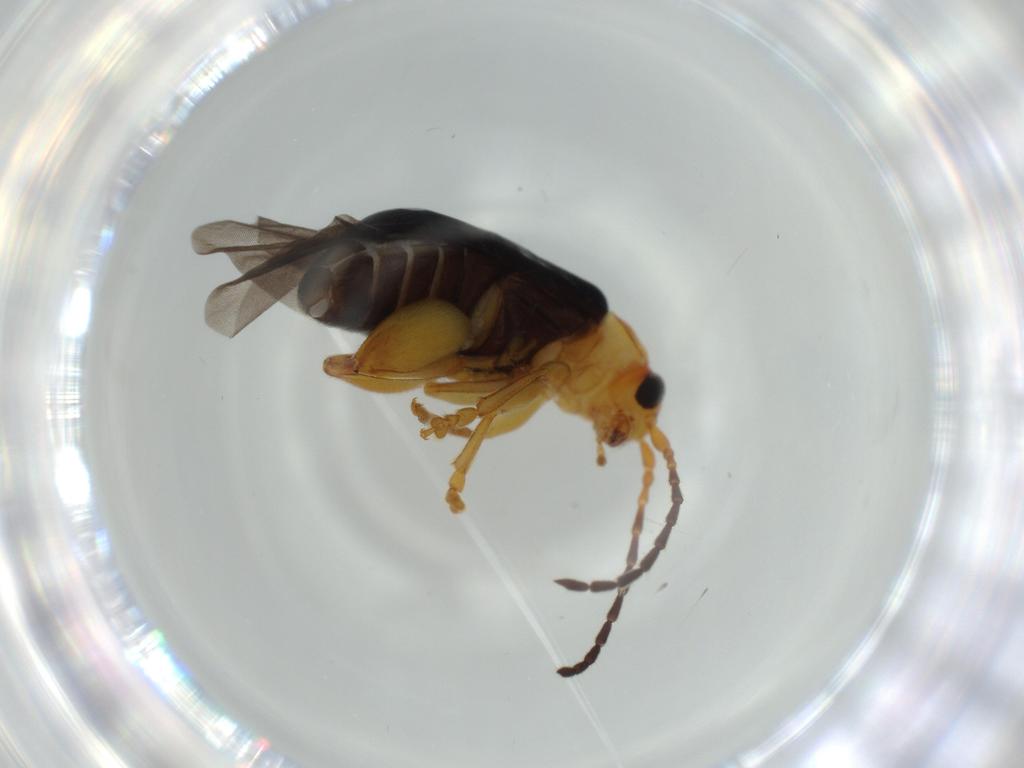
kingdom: Animalia
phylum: Arthropoda
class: Insecta
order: Coleoptera
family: Chrysomelidae
